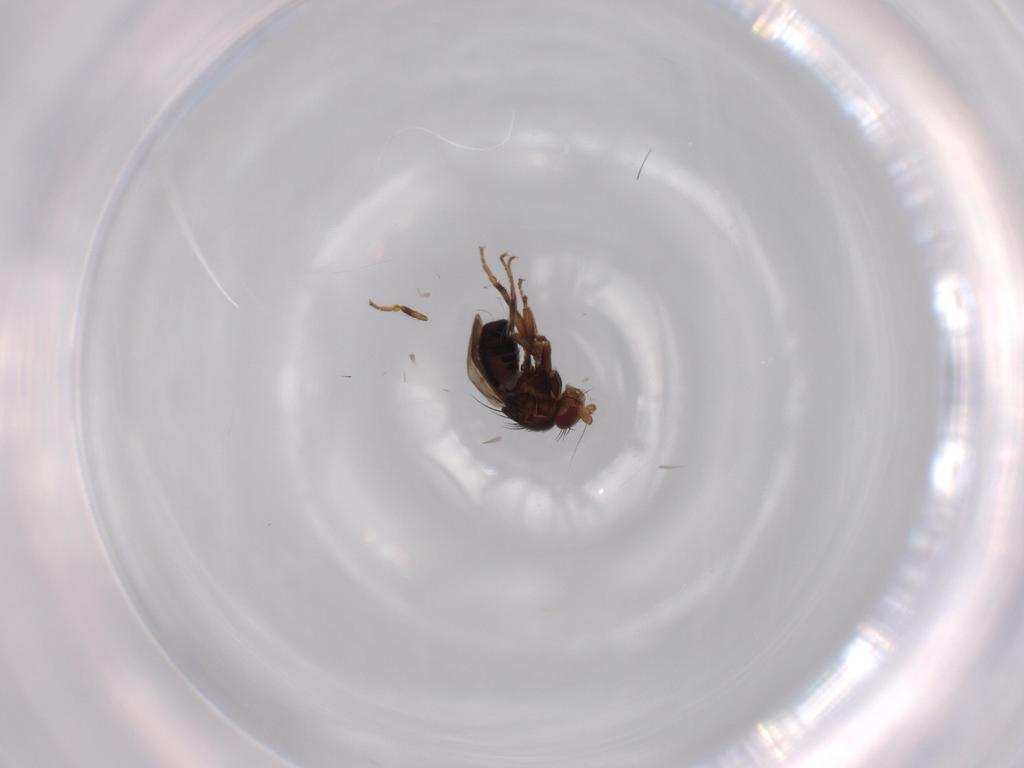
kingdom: Animalia
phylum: Arthropoda
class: Insecta
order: Diptera
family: Sphaeroceridae
